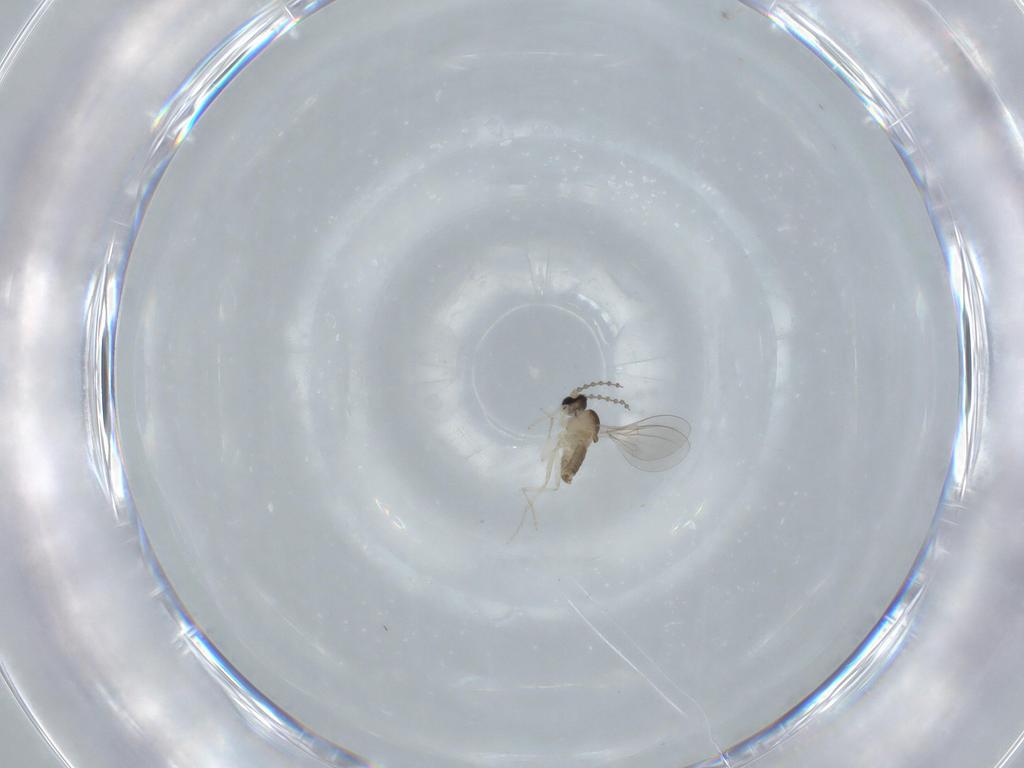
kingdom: Animalia
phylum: Arthropoda
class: Insecta
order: Diptera
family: Cecidomyiidae
